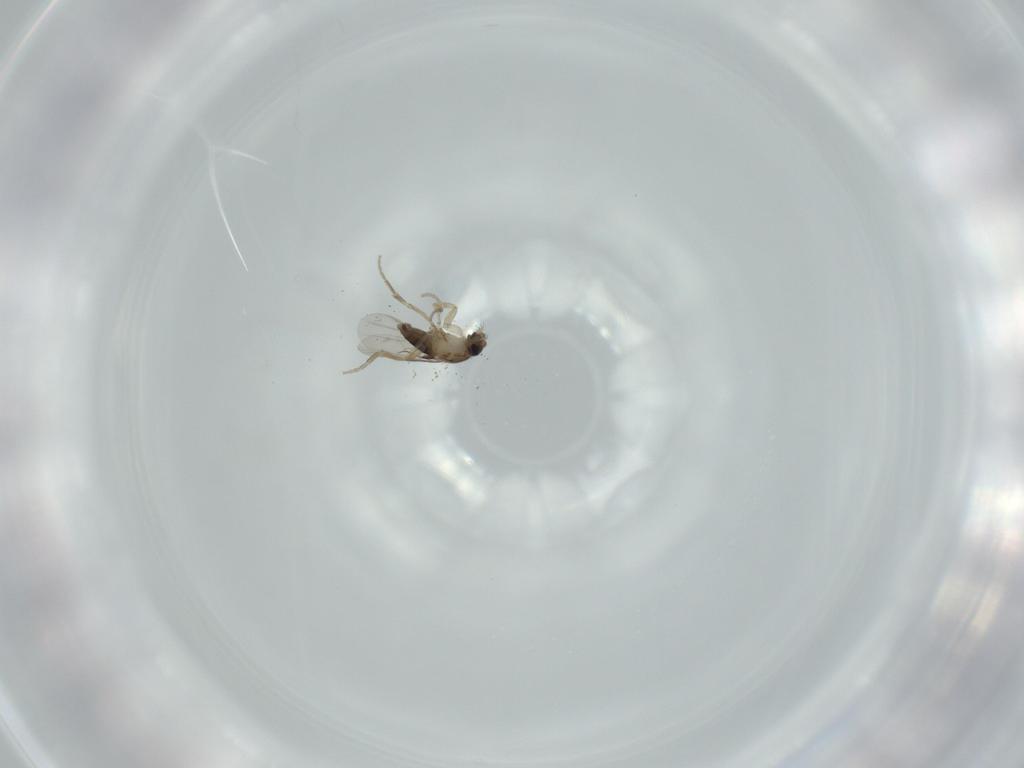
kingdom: Animalia
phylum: Arthropoda
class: Insecta
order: Diptera
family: Phoridae
